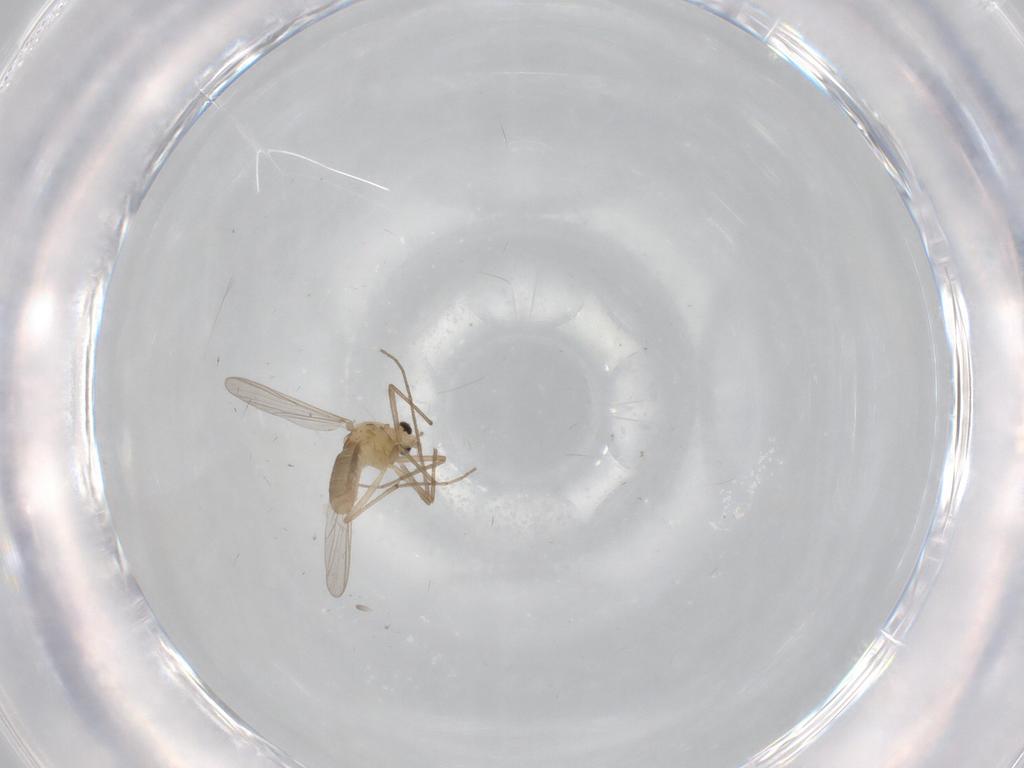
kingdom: Animalia
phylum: Arthropoda
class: Insecta
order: Diptera
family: Chironomidae
